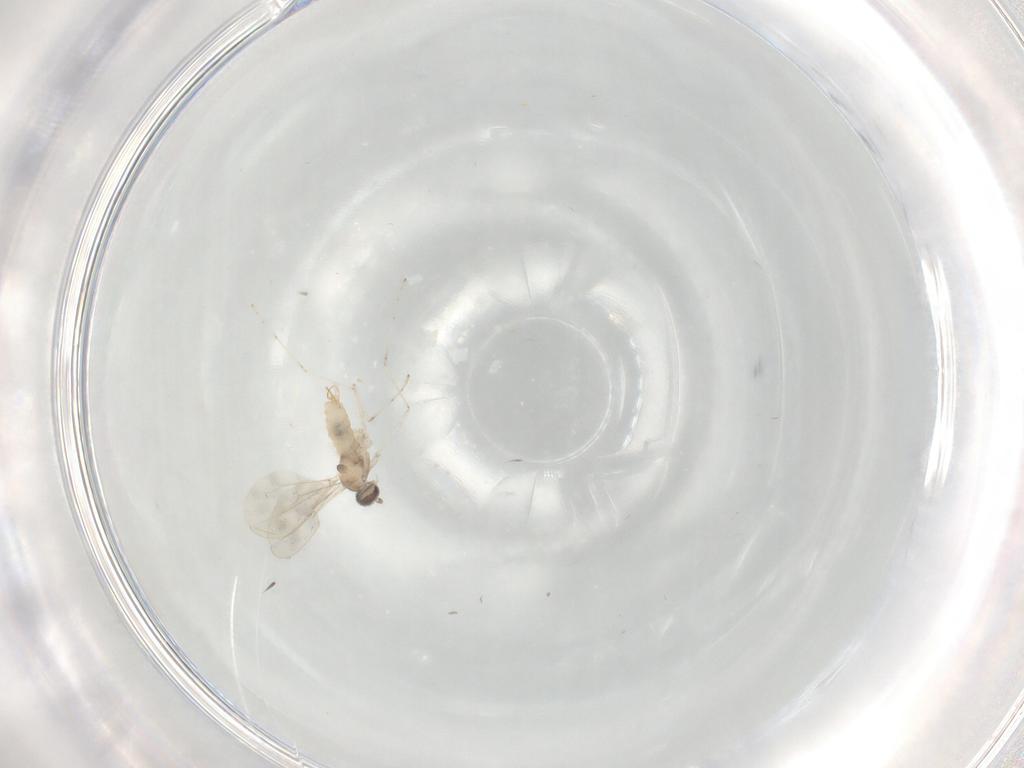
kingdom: Animalia
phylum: Arthropoda
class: Insecta
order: Diptera
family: Cecidomyiidae
